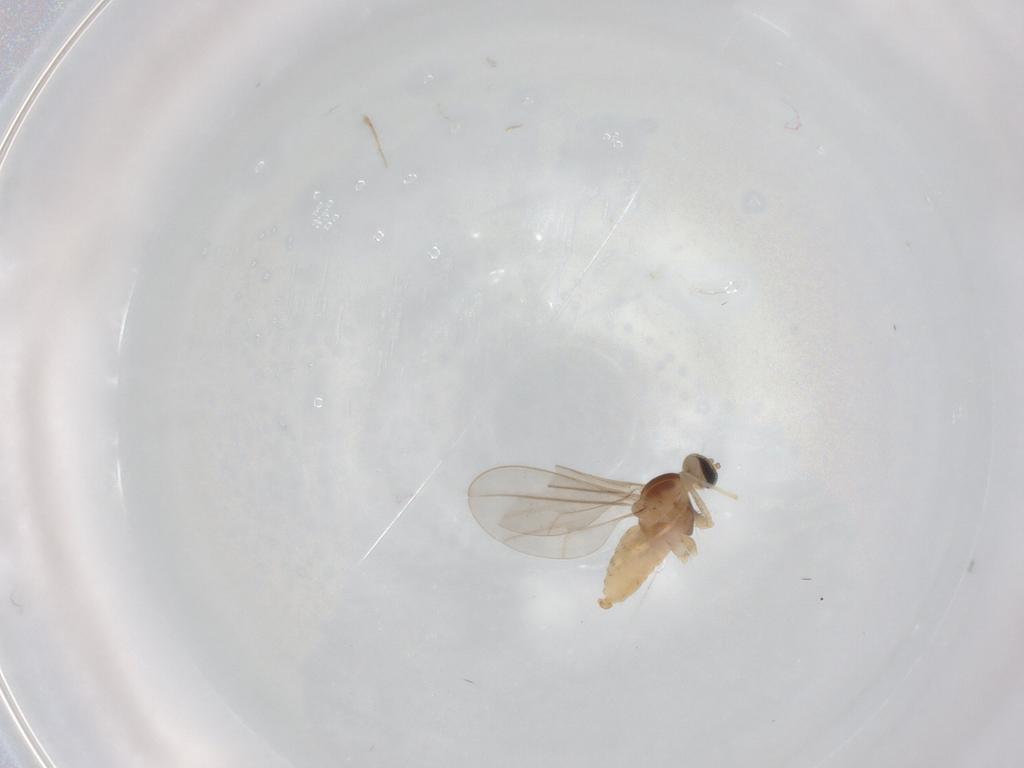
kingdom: Animalia
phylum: Arthropoda
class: Insecta
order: Diptera
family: Cecidomyiidae
